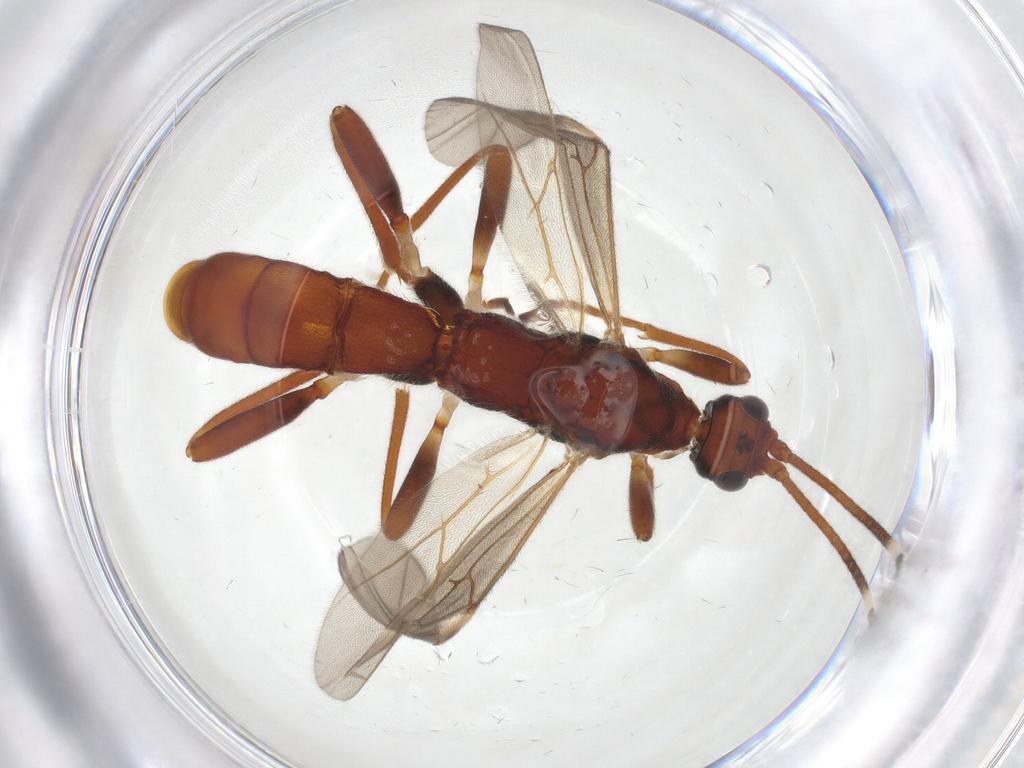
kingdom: Animalia
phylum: Arthropoda
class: Insecta
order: Hymenoptera
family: Braconidae
